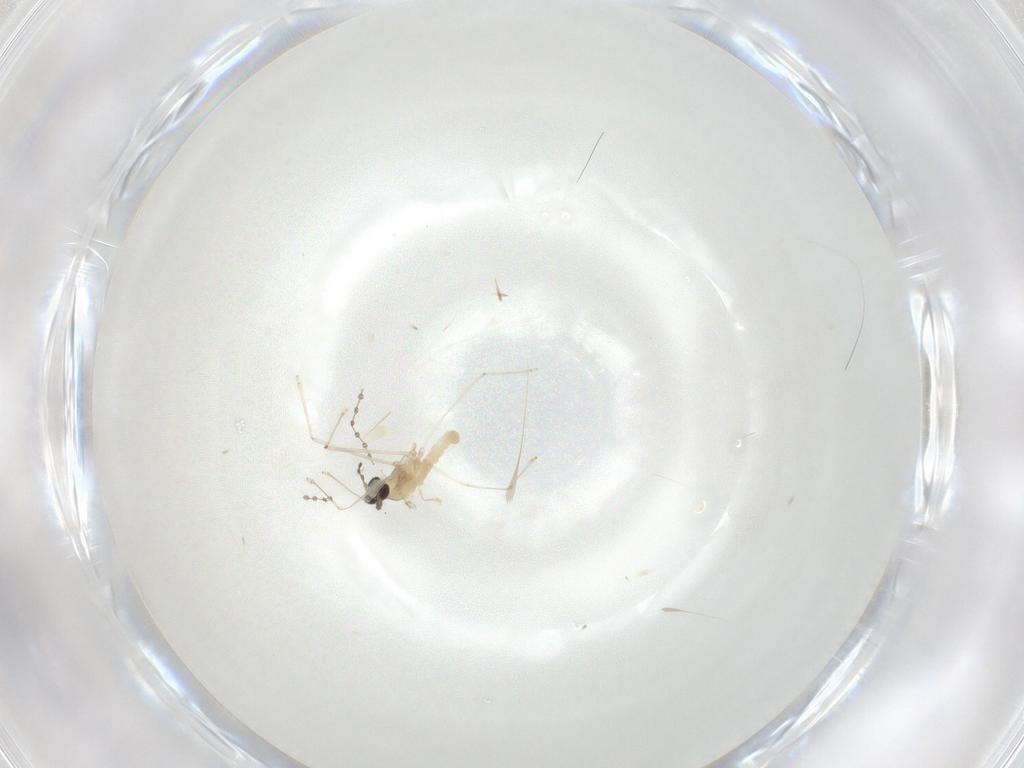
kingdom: Animalia
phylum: Arthropoda
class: Insecta
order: Diptera
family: Cecidomyiidae
